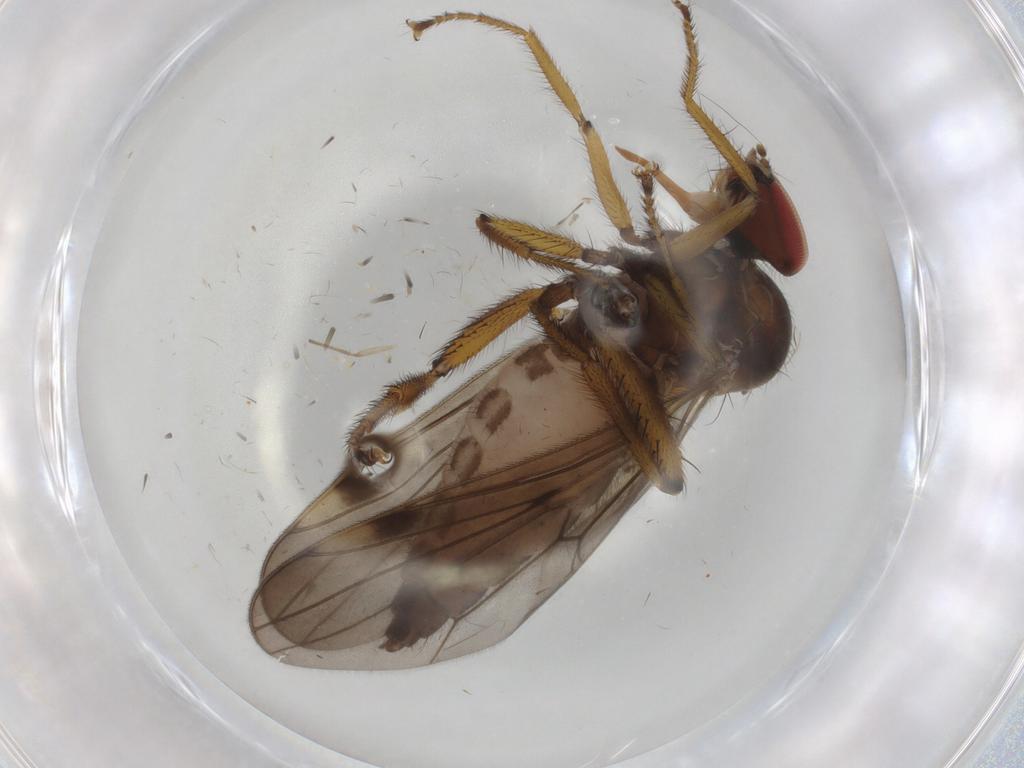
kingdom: Animalia
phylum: Arthropoda
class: Insecta
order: Diptera
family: Hybotidae
